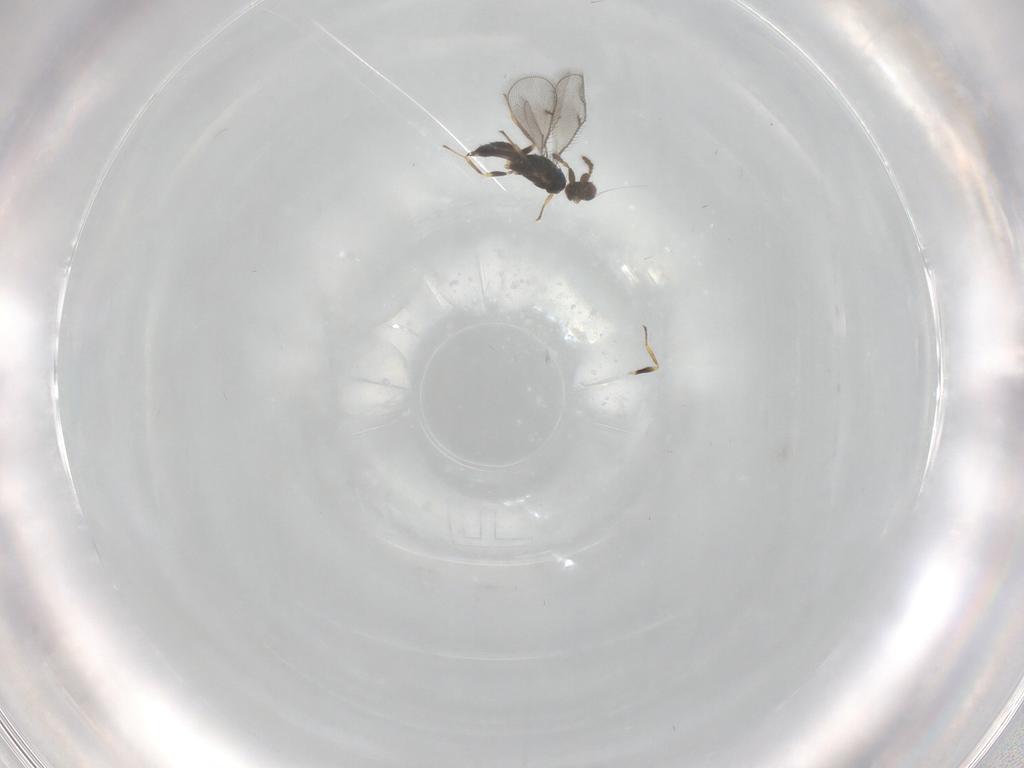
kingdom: Animalia
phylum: Arthropoda
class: Insecta
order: Hymenoptera
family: Eulophidae
